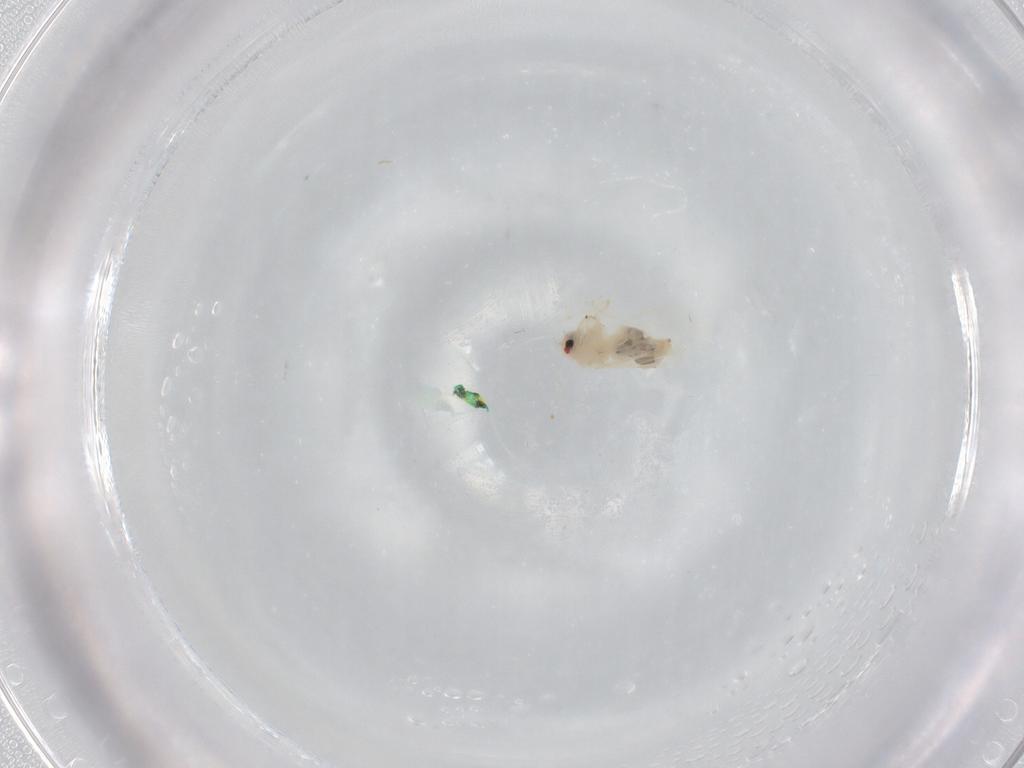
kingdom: Animalia
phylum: Arthropoda
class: Insecta
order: Hemiptera
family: Aleyrodidae
